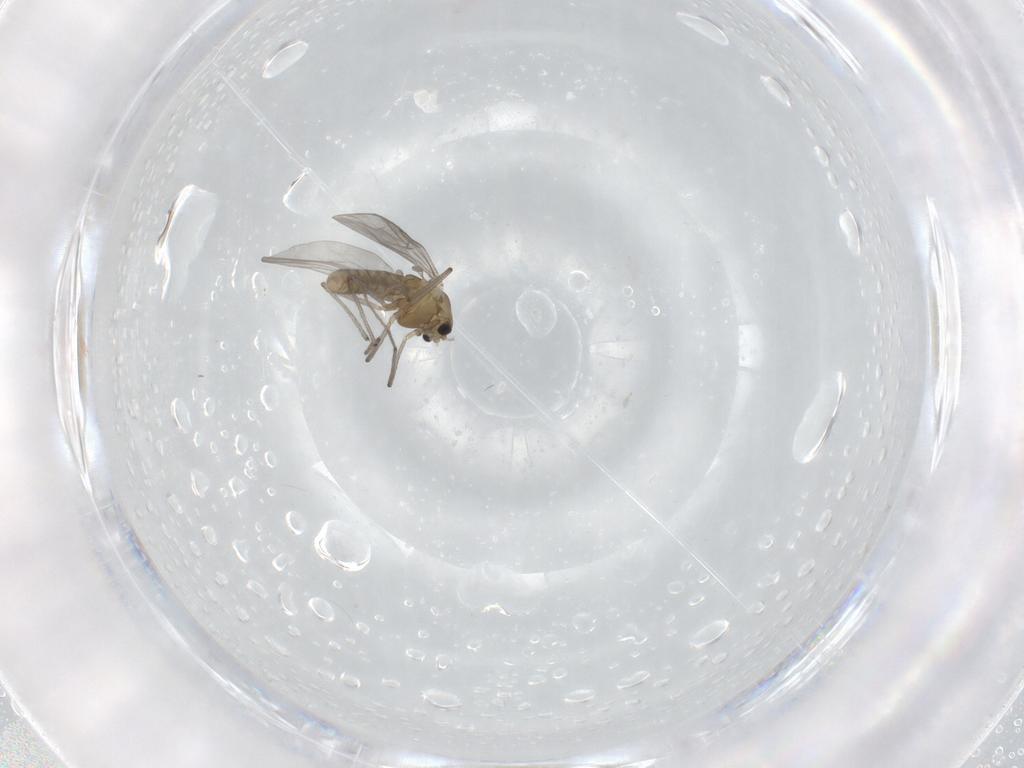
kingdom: Animalia
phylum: Arthropoda
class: Insecta
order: Diptera
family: Chironomidae
